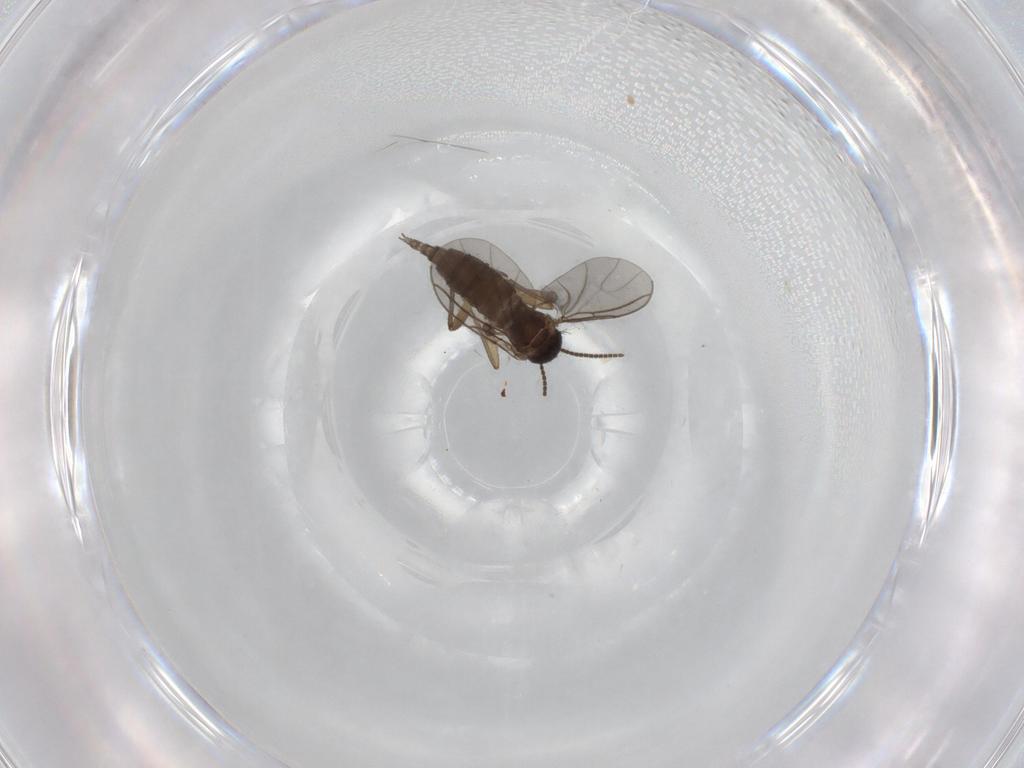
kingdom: Animalia
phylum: Arthropoda
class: Insecta
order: Diptera
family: Sciaridae
